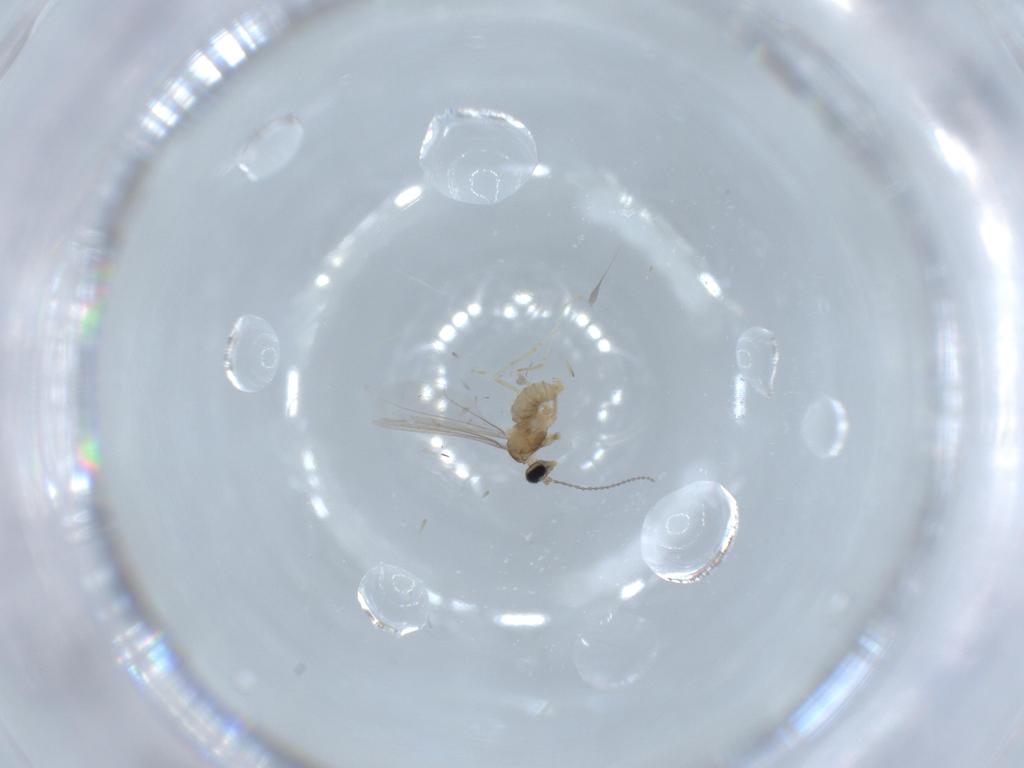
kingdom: Animalia
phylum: Arthropoda
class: Insecta
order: Diptera
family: Cecidomyiidae
